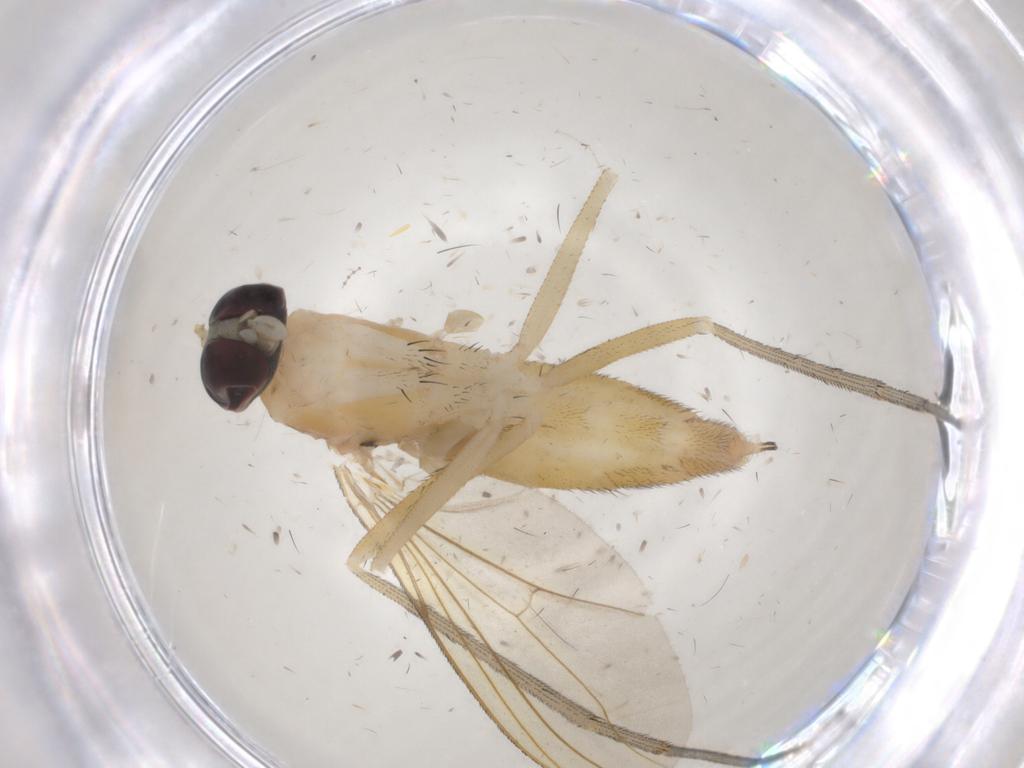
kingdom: Animalia
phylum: Arthropoda
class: Insecta
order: Diptera
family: Dolichopodidae
